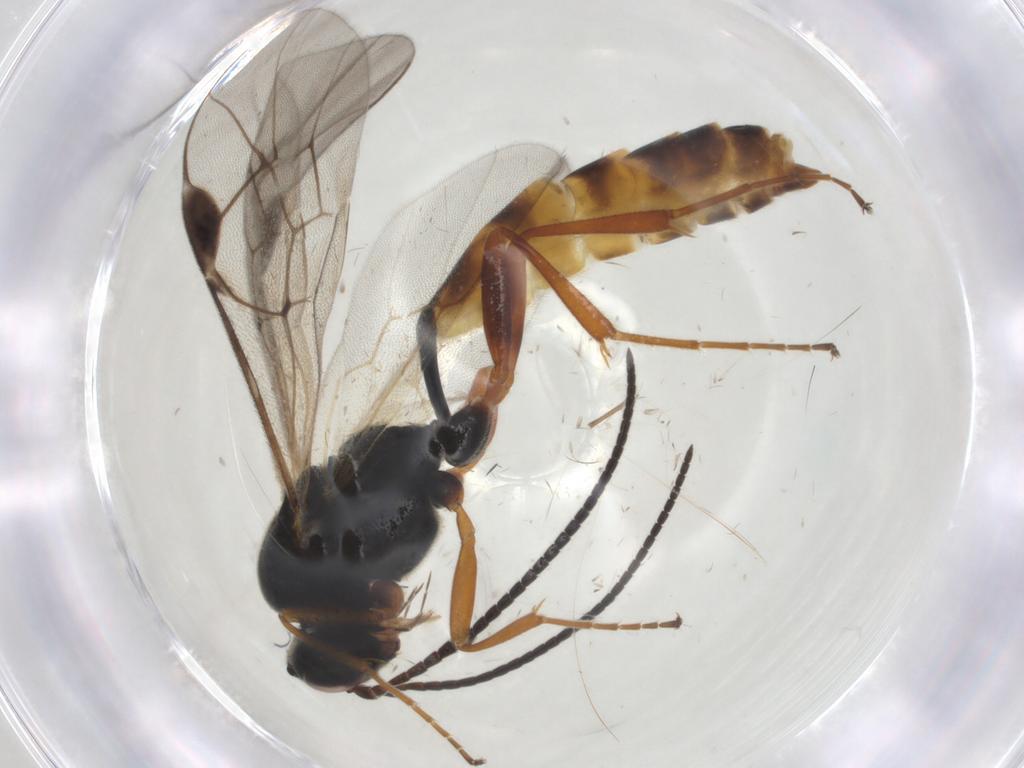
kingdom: Animalia
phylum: Arthropoda
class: Insecta
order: Hymenoptera
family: Ichneumonidae
